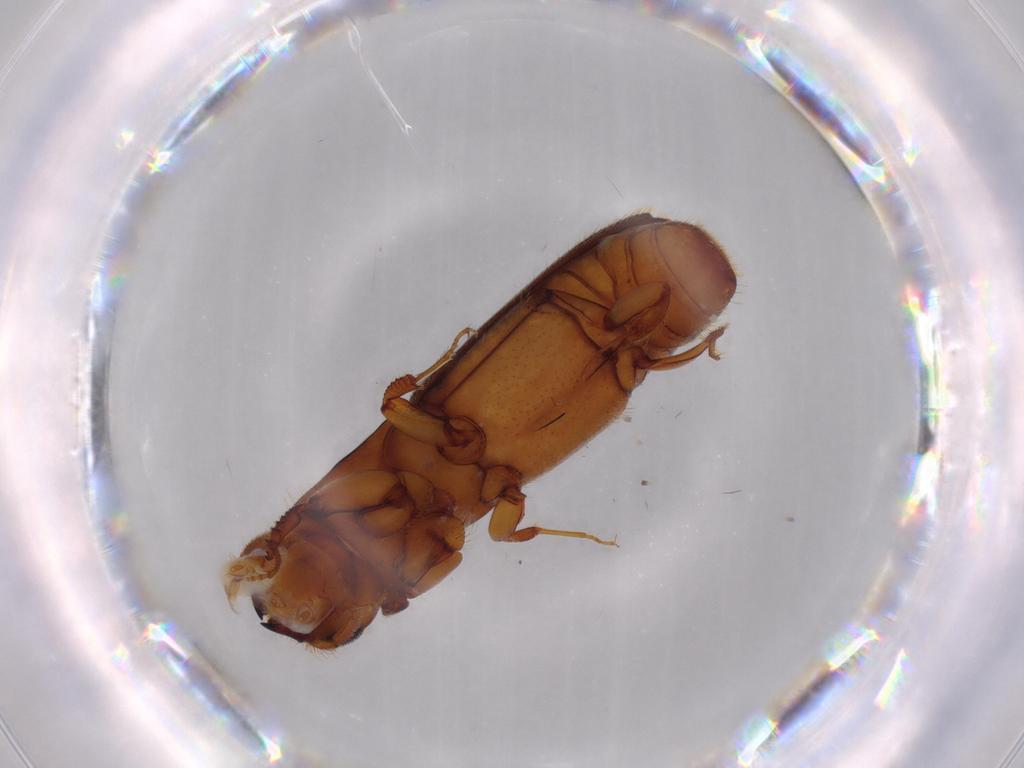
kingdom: Animalia
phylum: Arthropoda
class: Insecta
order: Coleoptera
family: Curculionidae
